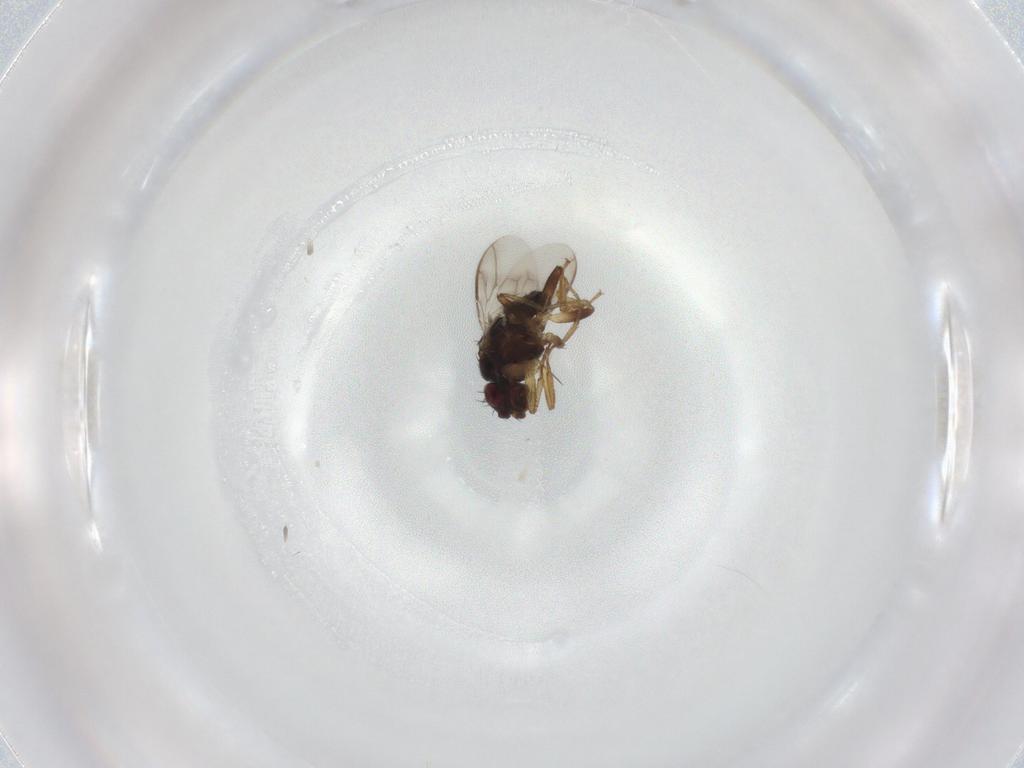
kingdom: Animalia
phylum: Arthropoda
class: Insecta
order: Diptera
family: Sphaeroceridae
